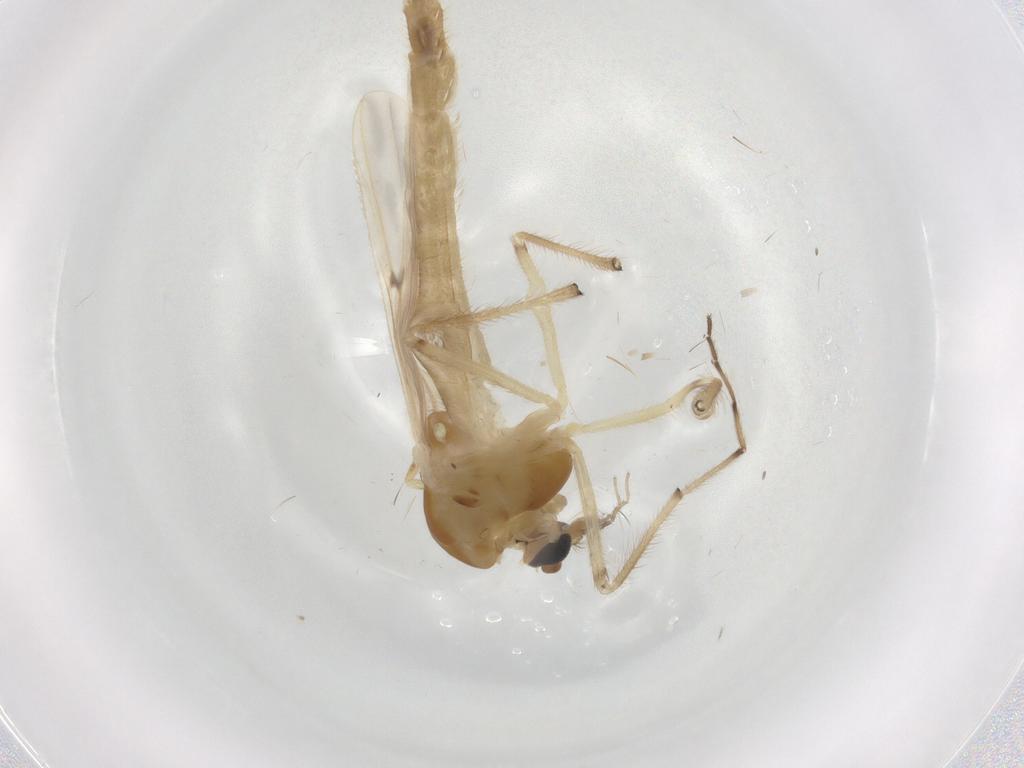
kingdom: Animalia
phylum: Arthropoda
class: Insecta
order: Diptera
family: Chironomidae
